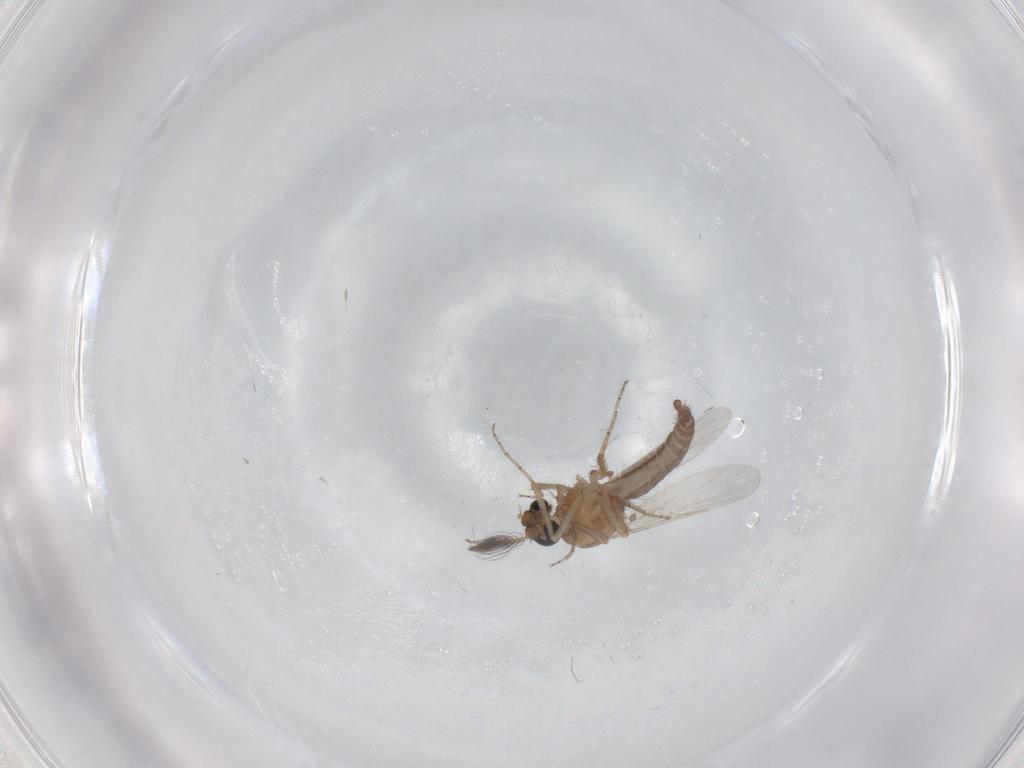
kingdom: Animalia
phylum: Arthropoda
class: Insecta
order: Diptera
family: Ceratopogonidae
